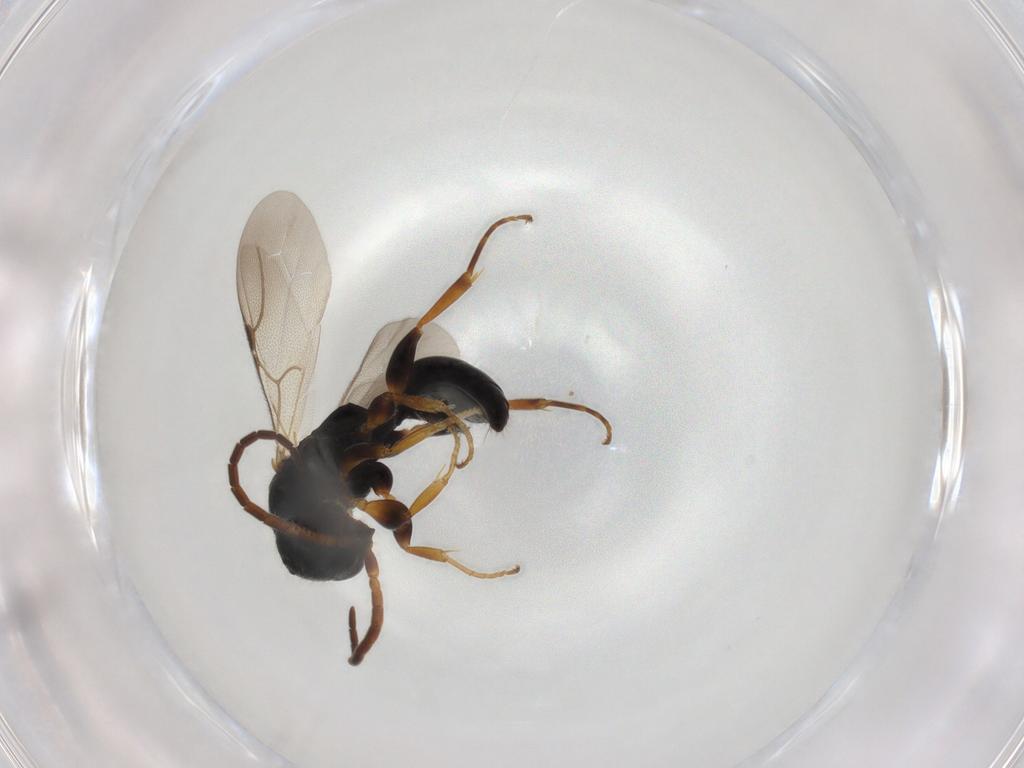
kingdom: Animalia
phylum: Arthropoda
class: Insecta
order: Hymenoptera
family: Bethylidae
